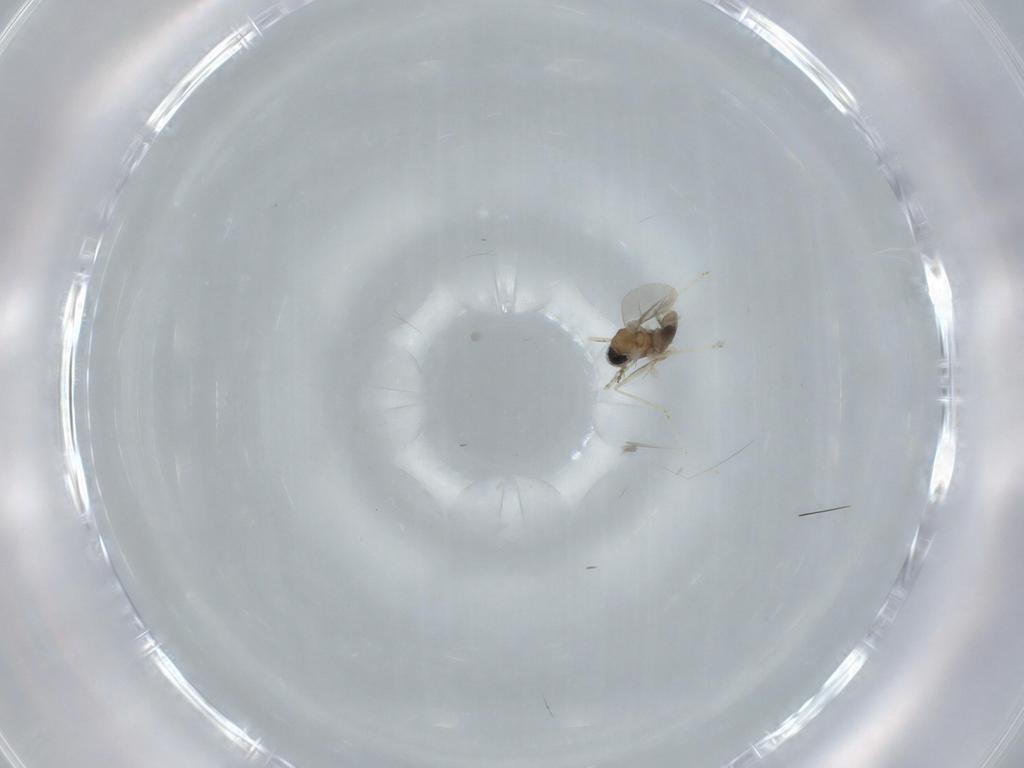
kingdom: Animalia
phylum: Arthropoda
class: Insecta
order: Diptera
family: Cecidomyiidae
